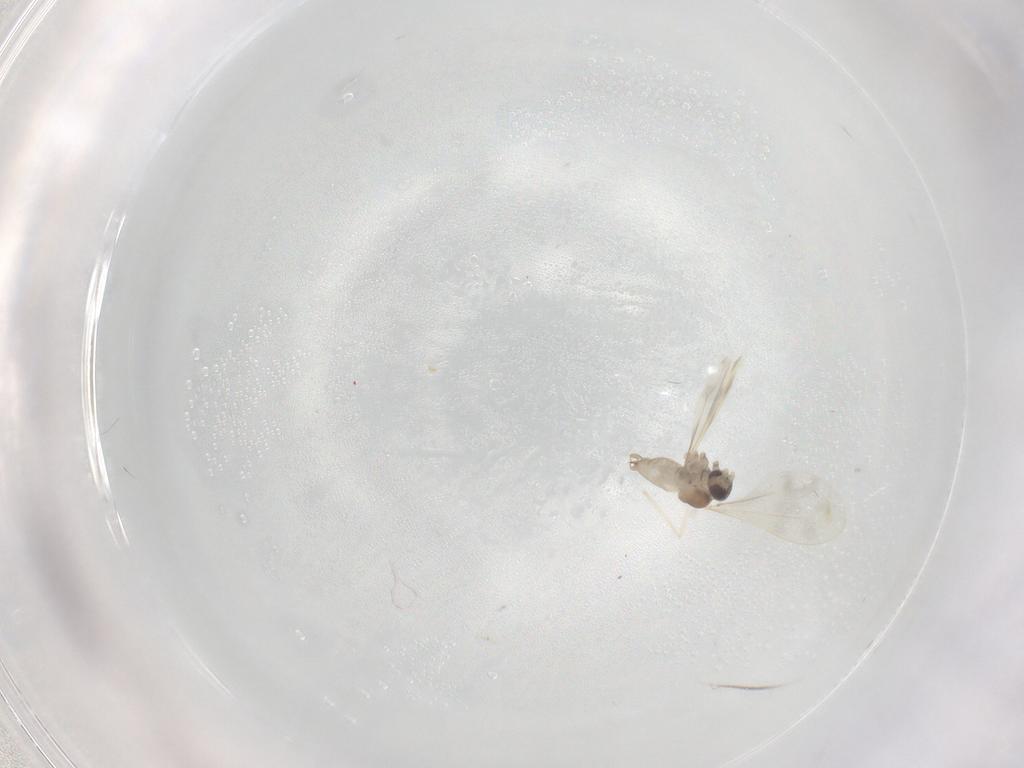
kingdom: Animalia
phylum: Arthropoda
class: Insecta
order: Diptera
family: Cecidomyiidae
